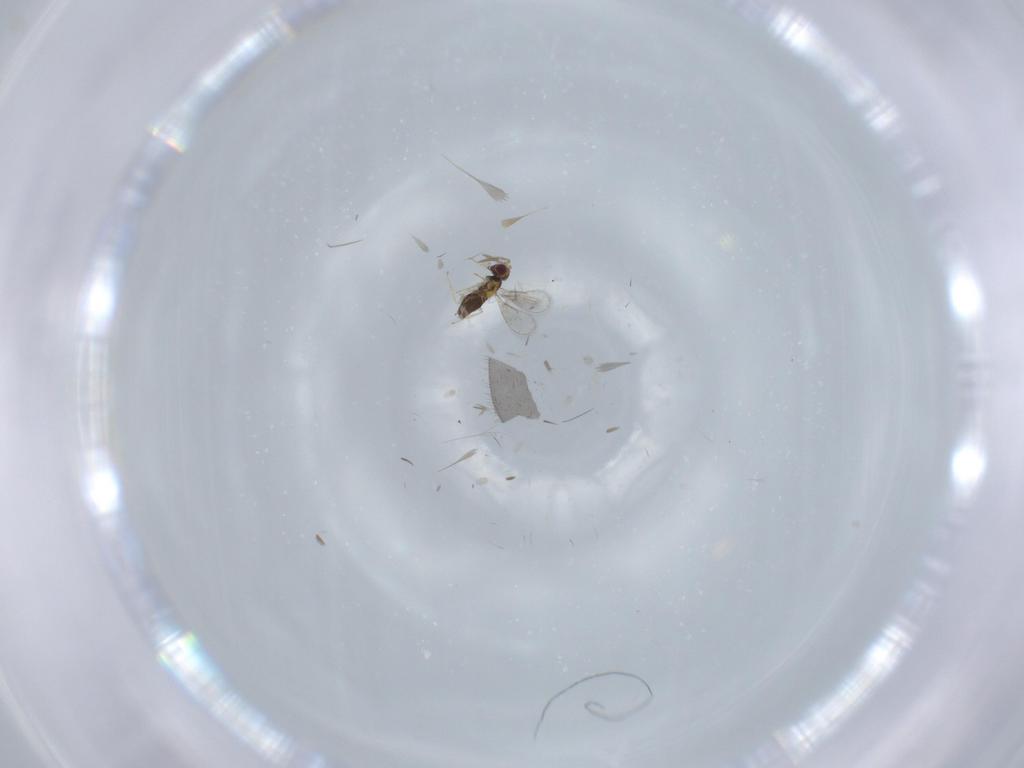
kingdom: Animalia
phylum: Arthropoda
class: Insecta
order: Hymenoptera
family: Aphelinidae
